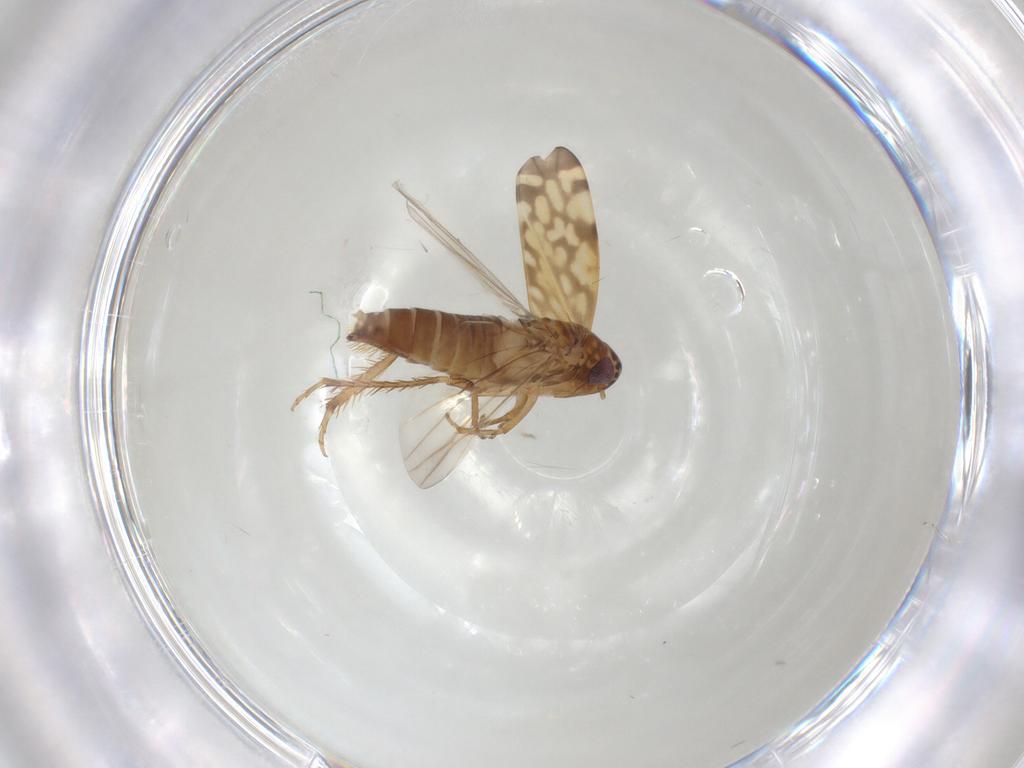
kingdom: Animalia
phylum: Arthropoda
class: Insecta
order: Hemiptera
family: Cicadellidae
